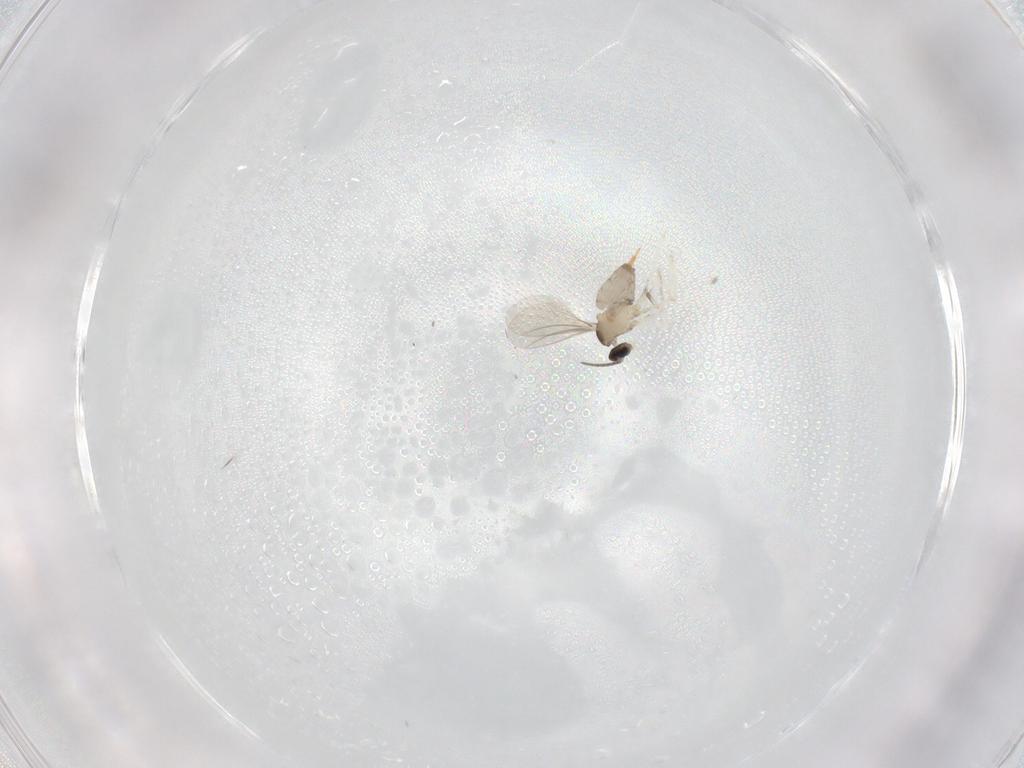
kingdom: Animalia
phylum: Arthropoda
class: Insecta
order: Diptera
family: Cecidomyiidae
